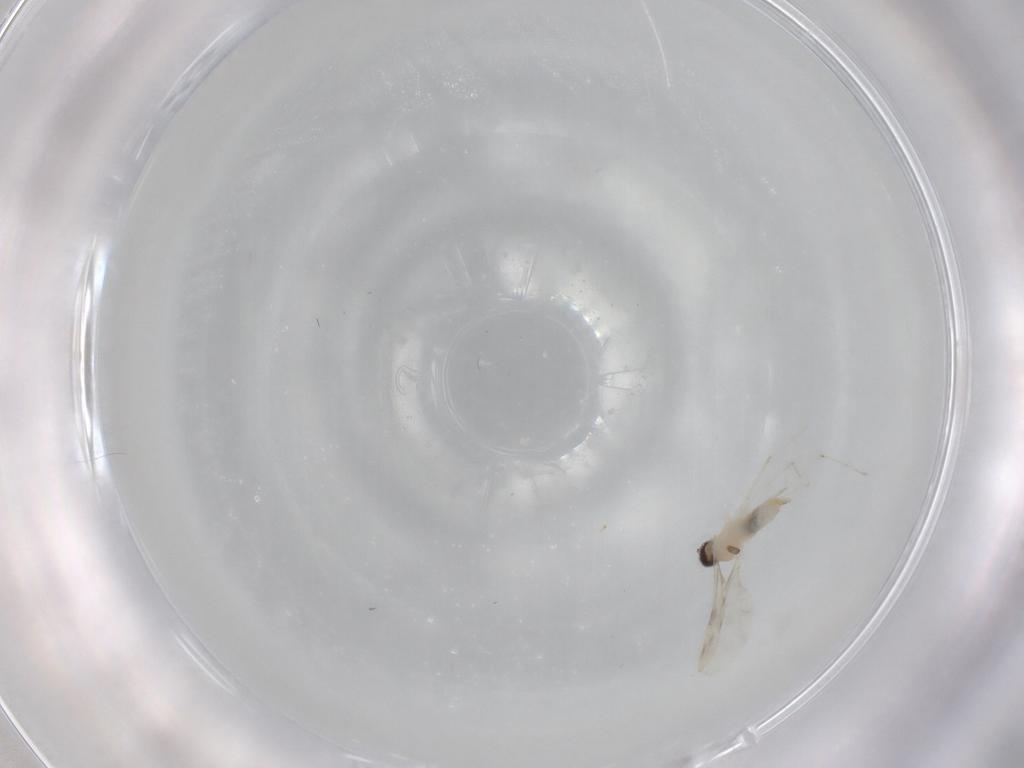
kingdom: Animalia
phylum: Arthropoda
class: Insecta
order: Diptera
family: Cecidomyiidae
